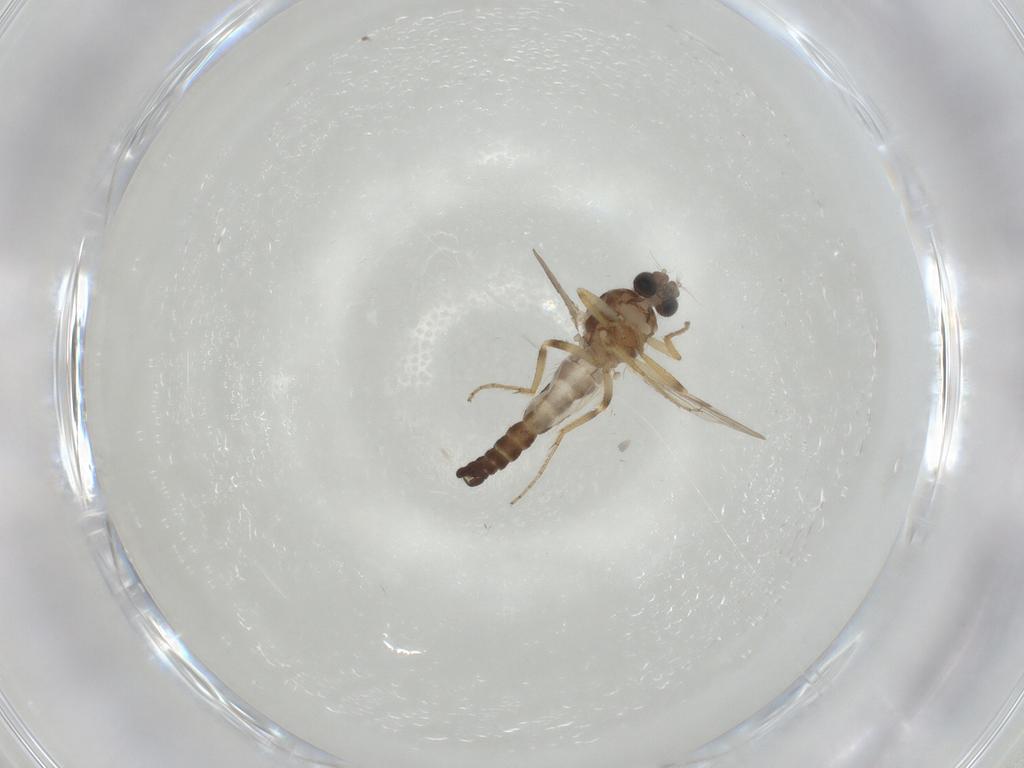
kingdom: Animalia
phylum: Arthropoda
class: Insecta
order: Diptera
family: Ceratopogonidae
